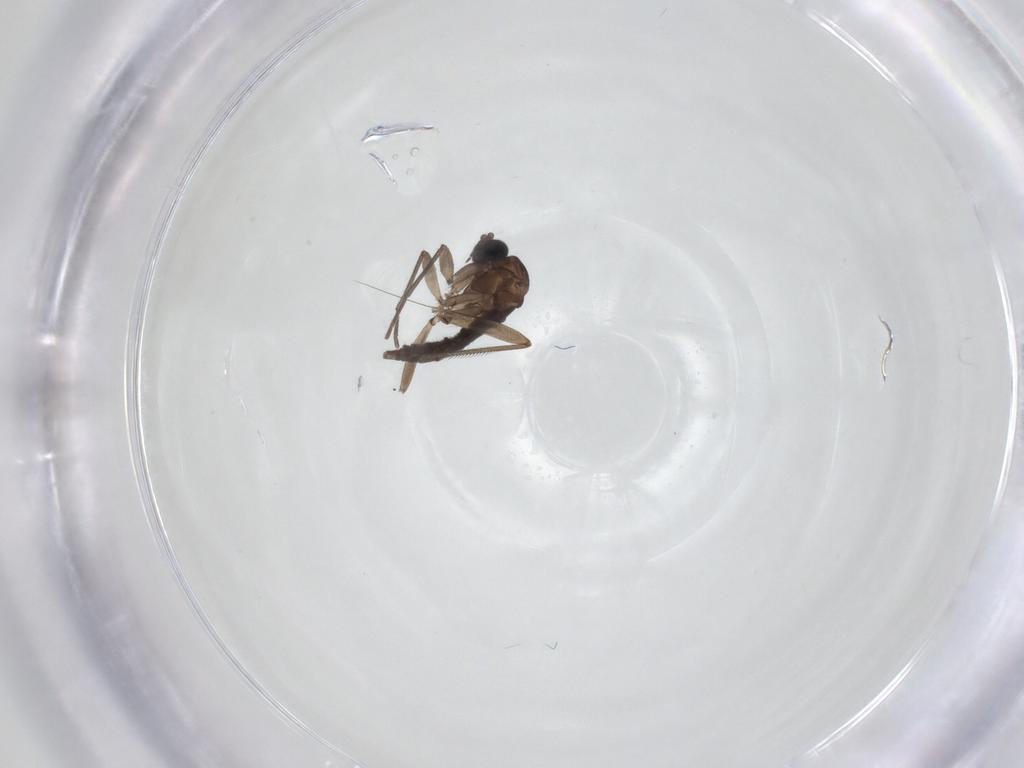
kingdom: Animalia
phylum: Arthropoda
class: Insecta
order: Diptera
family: Sciaridae
